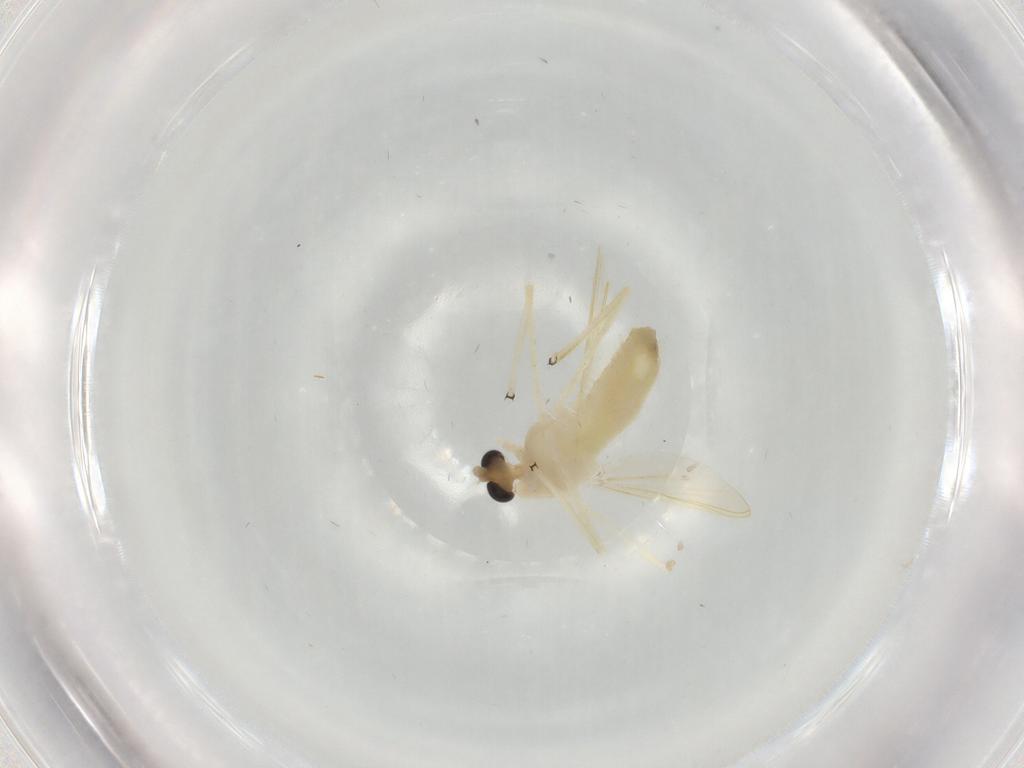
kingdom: Animalia
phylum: Arthropoda
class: Insecta
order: Diptera
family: Chironomidae
